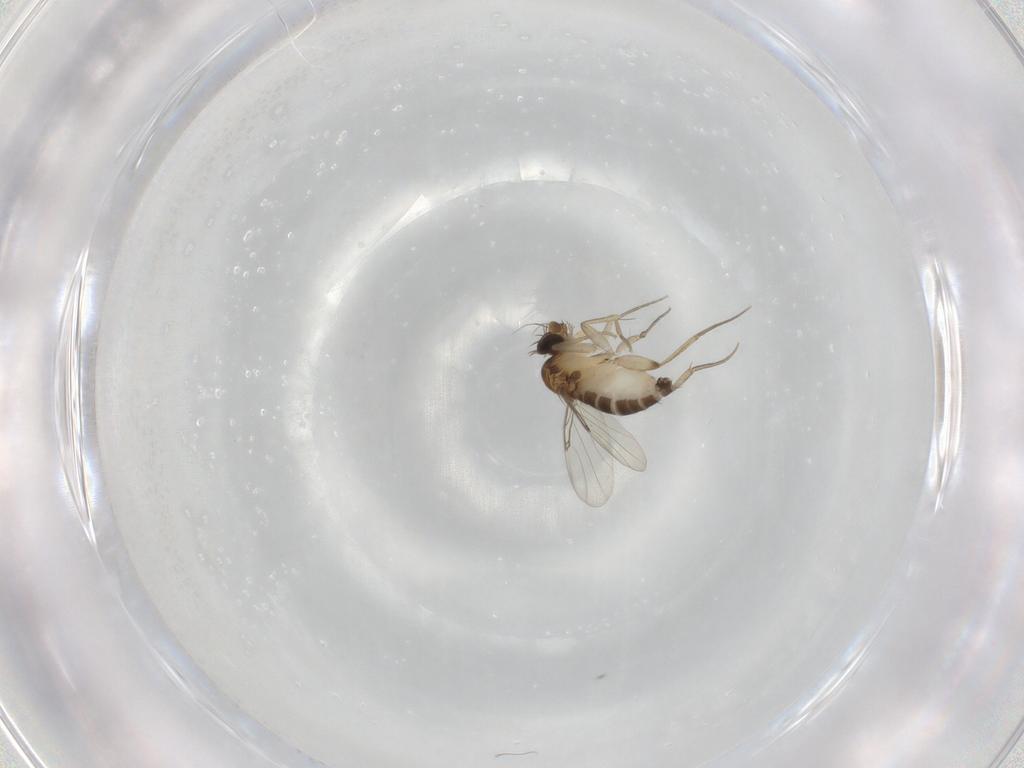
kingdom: Animalia
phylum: Arthropoda
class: Insecta
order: Diptera
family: Phoridae
